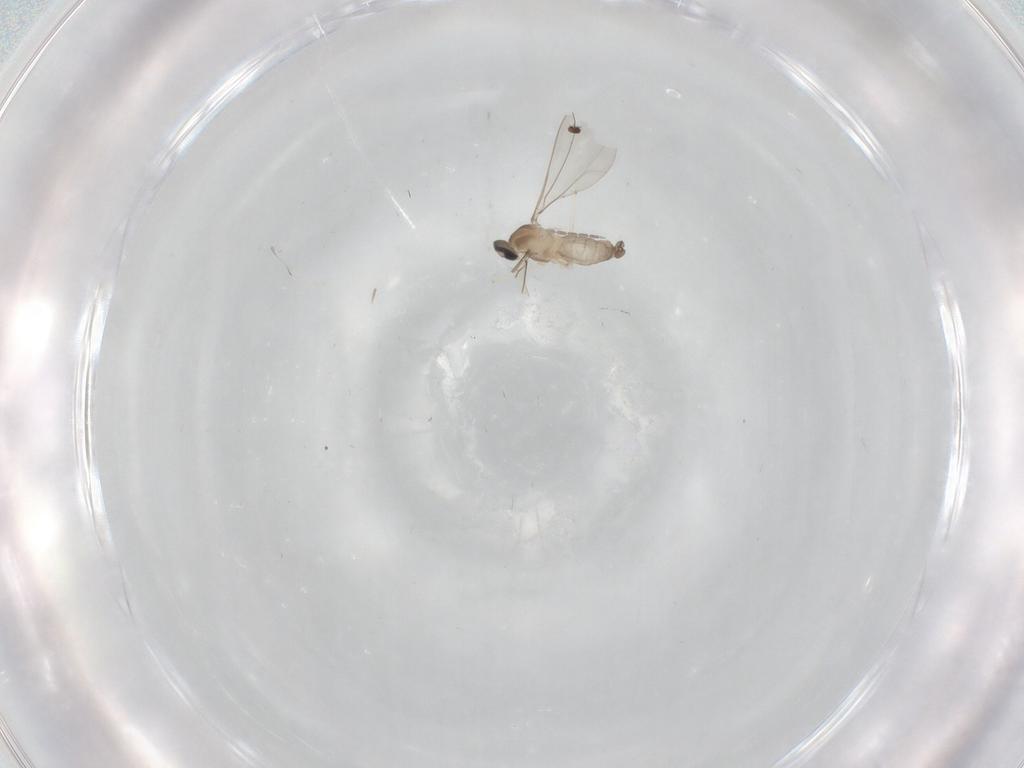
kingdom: Animalia
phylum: Arthropoda
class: Insecta
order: Diptera
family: Cecidomyiidae
